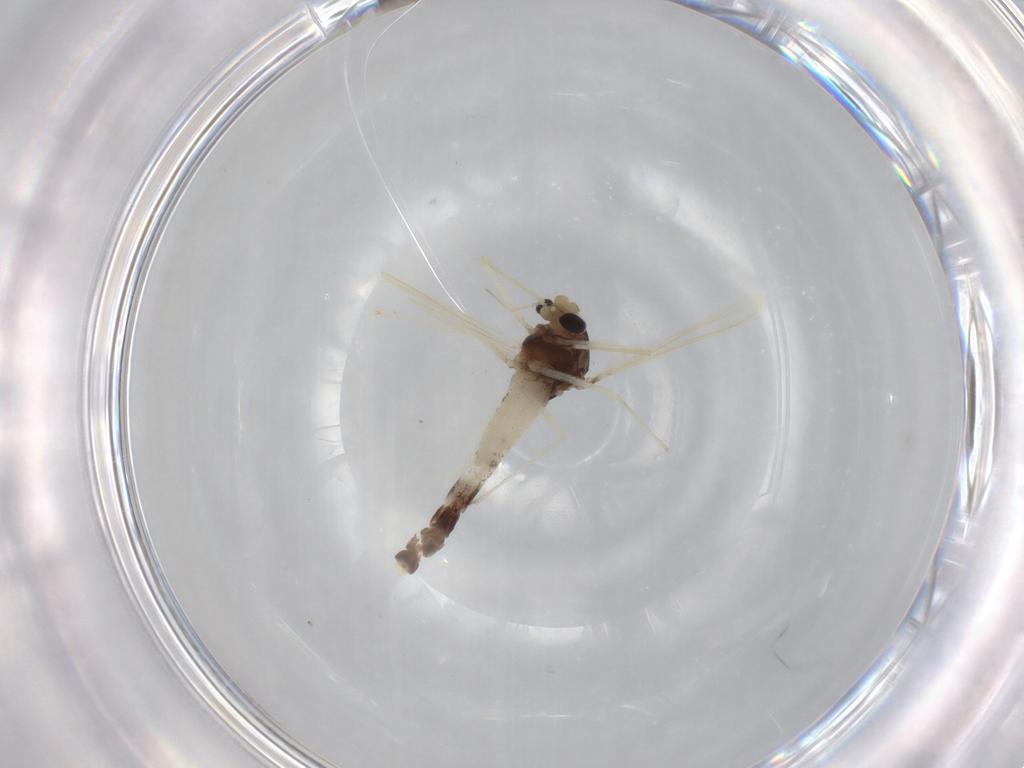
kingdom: Animalia
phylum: Arthropoda
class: Insecta
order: Diptera
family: Chironomidae
